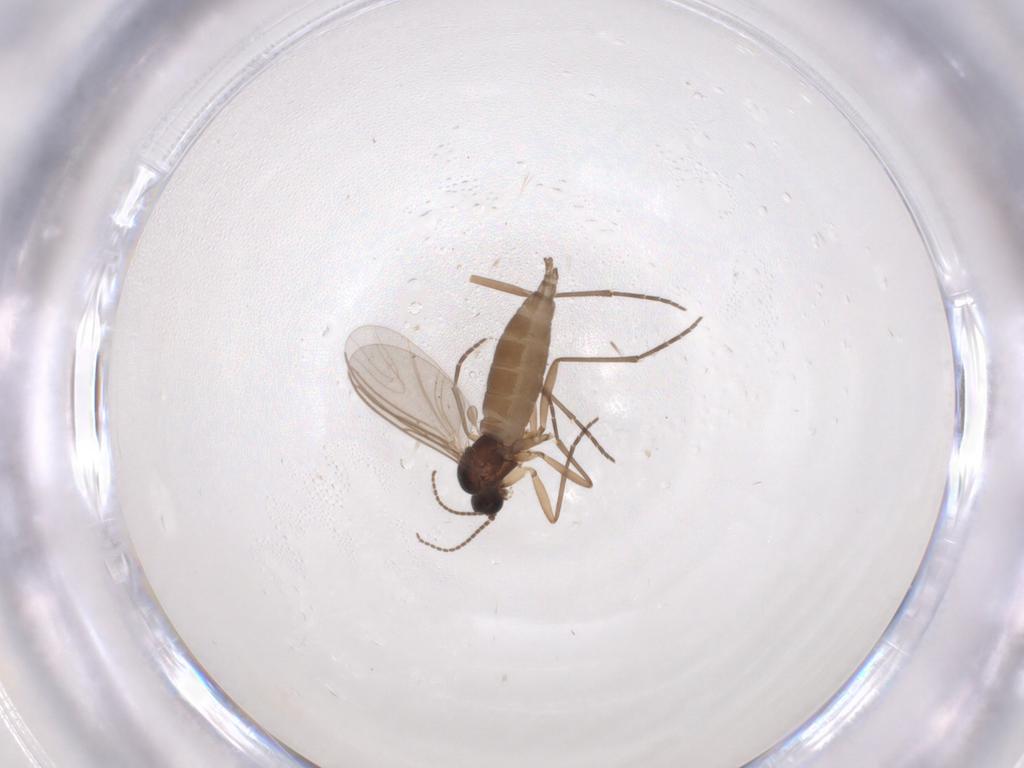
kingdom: Animalia
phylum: Arthropoda
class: Insecta
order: Diptera
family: Sciaridae
